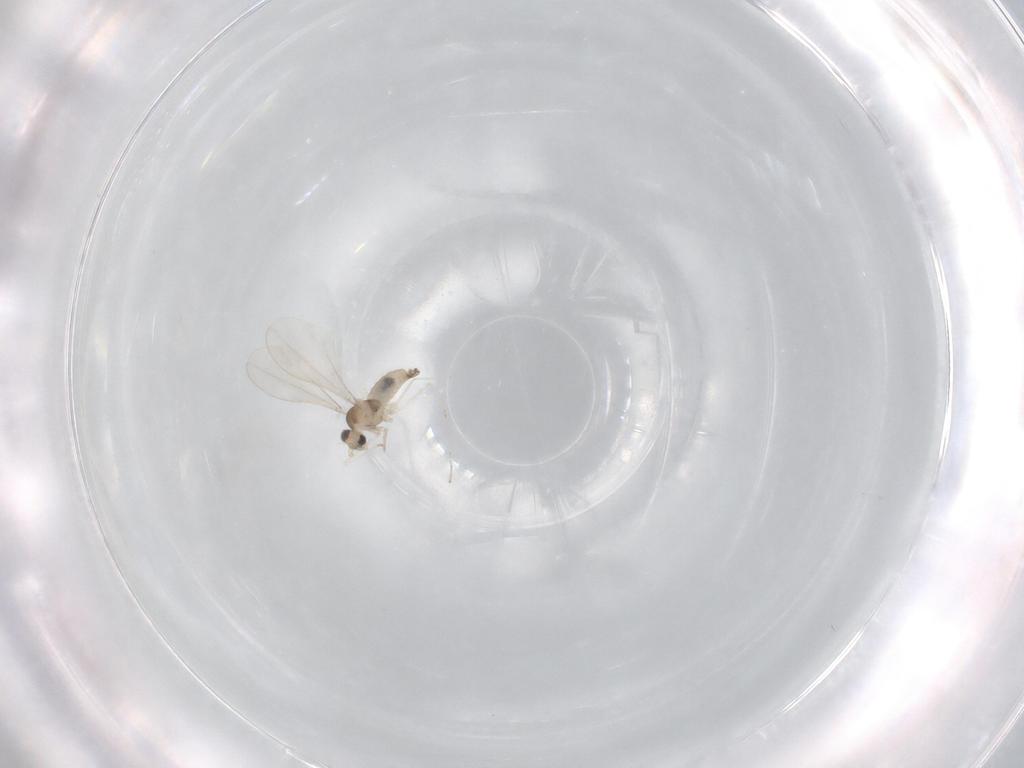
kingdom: Animalia
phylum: Arthropoda
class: Insecta
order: Diptera
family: Cecidomyiidae
